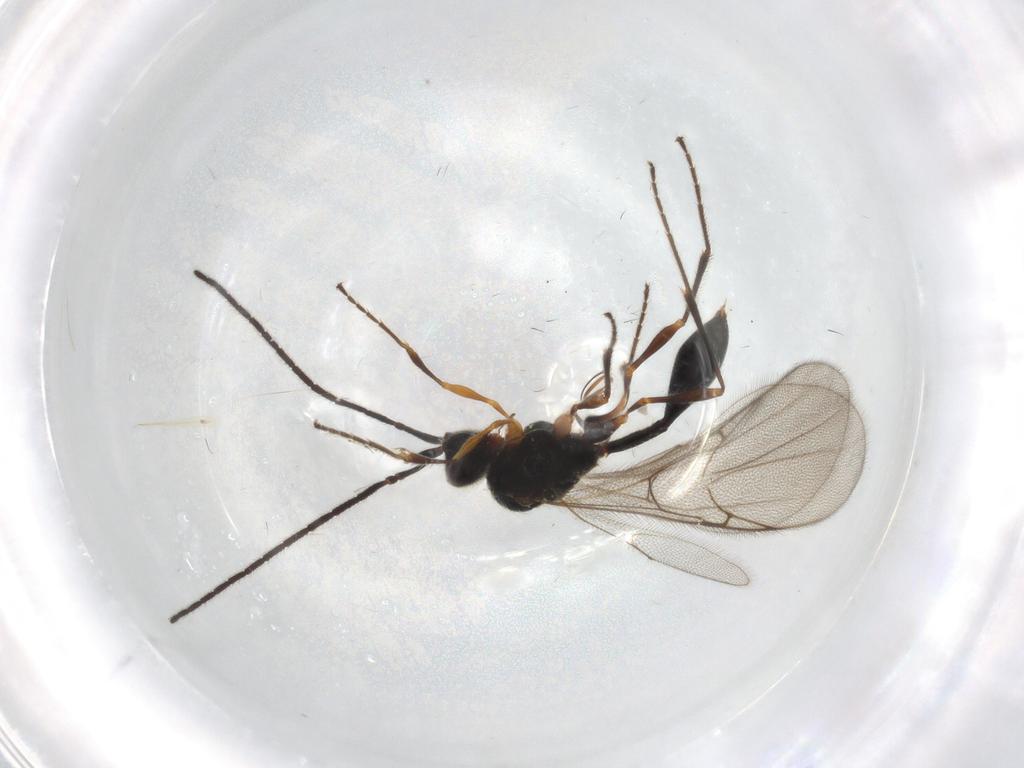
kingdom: Animalia
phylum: Arthropoda
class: Insecta
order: Hymenoptera
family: Diapriidae
